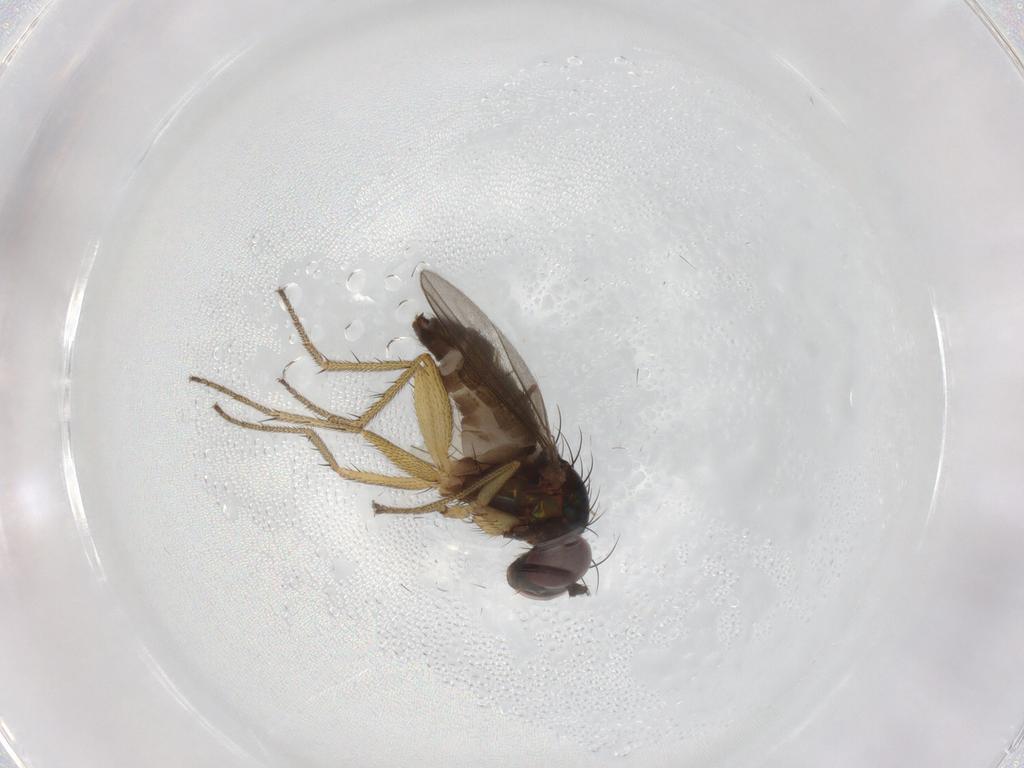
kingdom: Animalia
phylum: Arthropoda
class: Insecta
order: Diptera
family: Dolichopodidae
